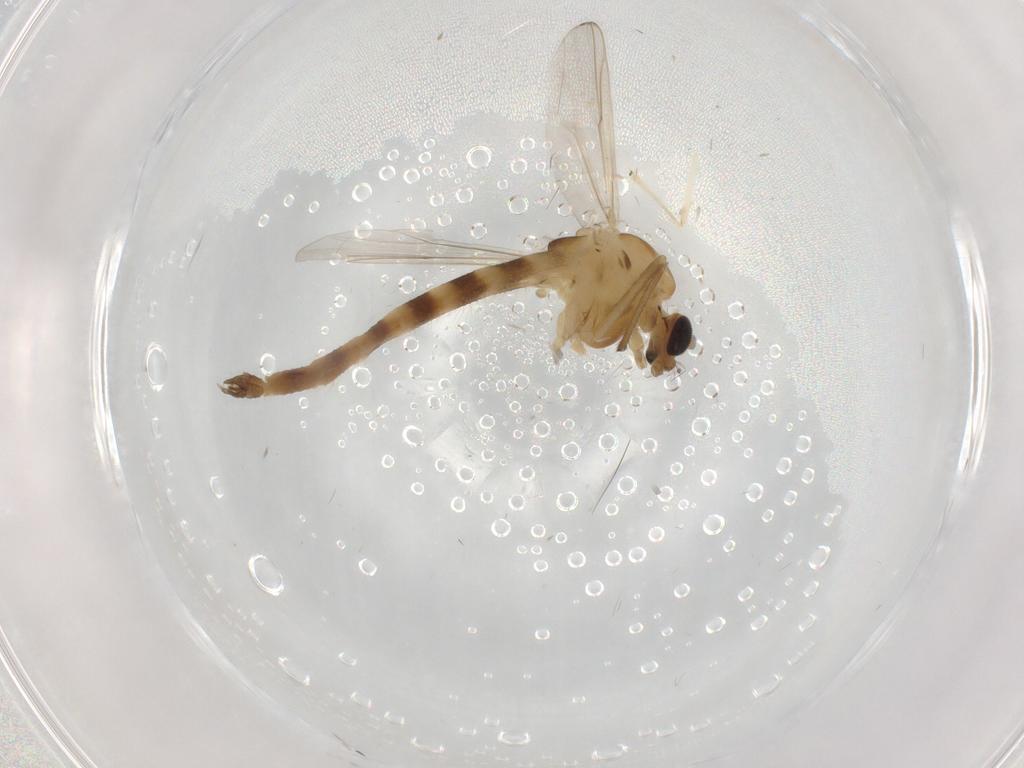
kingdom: Animalia
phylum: Arthropoda
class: Insecta
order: Diptera
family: Chironomidae
